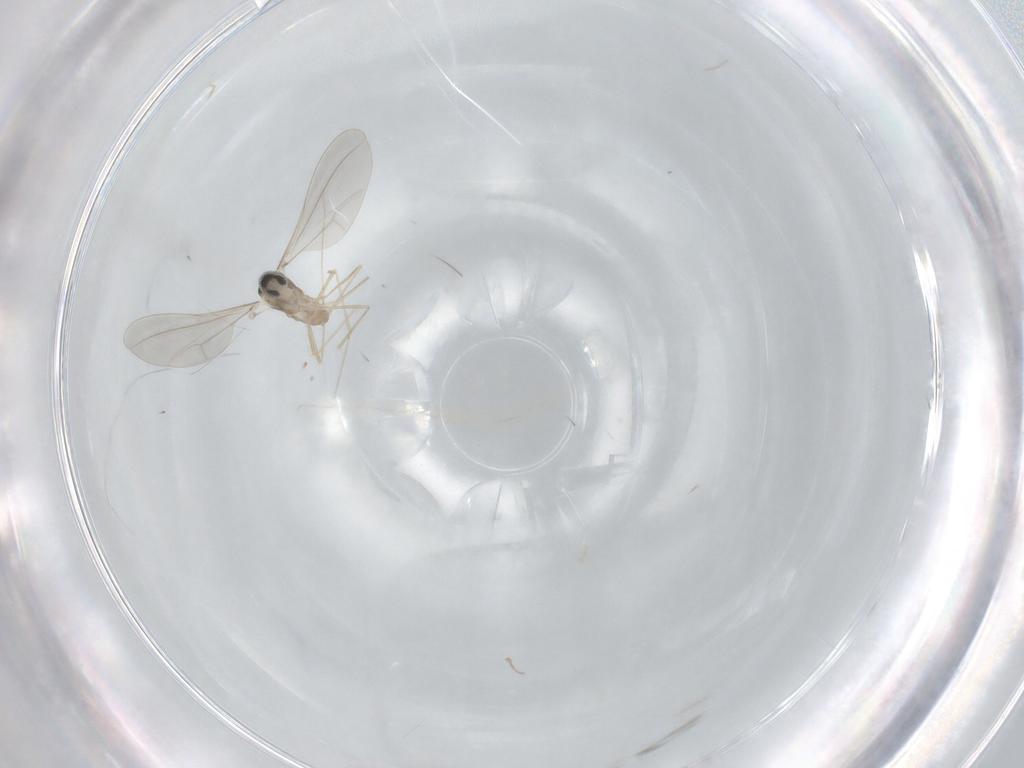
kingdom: Animalia
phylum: Arthropoda
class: Insecta
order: Diptera
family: Cecidomyiidae
